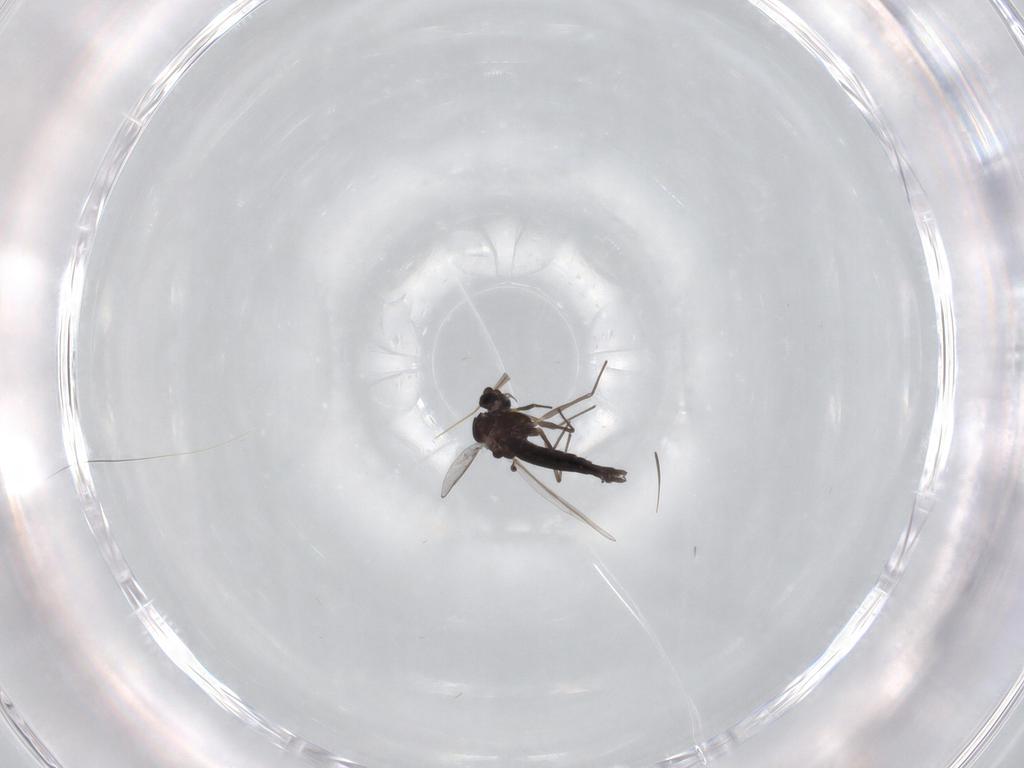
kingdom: Animalia
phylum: Arthropoda
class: Insecta
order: Diptera
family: Chironomidae
